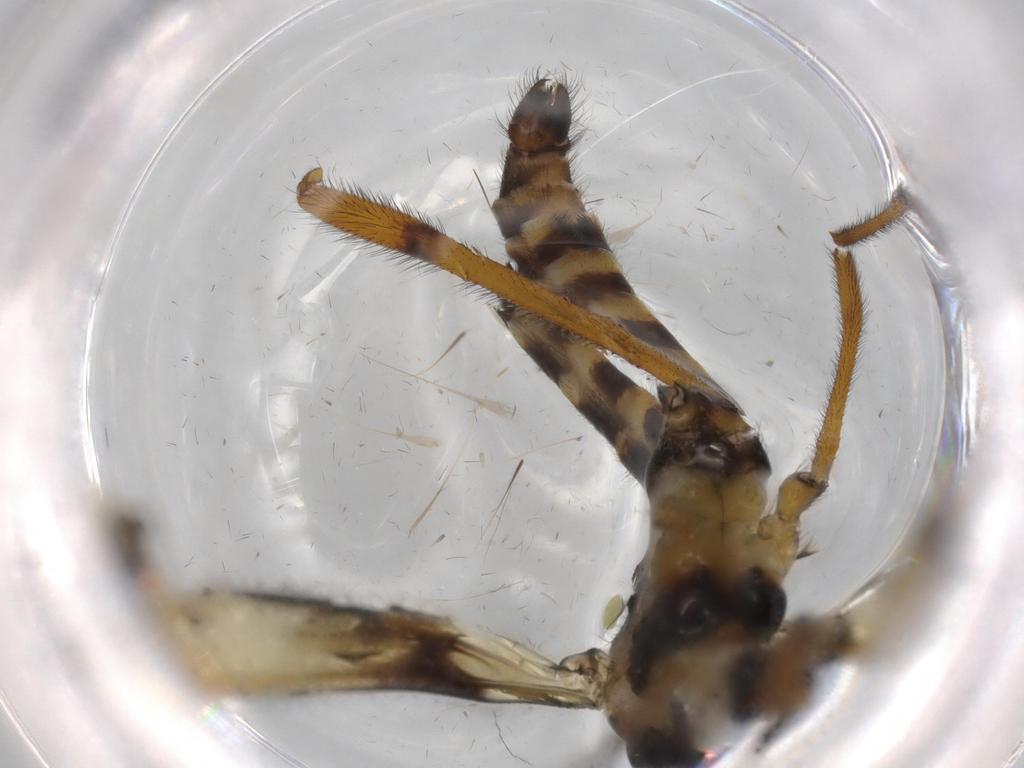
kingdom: Animalia
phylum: Arthropoda
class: Insecta
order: Diptera
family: Limoniidae
